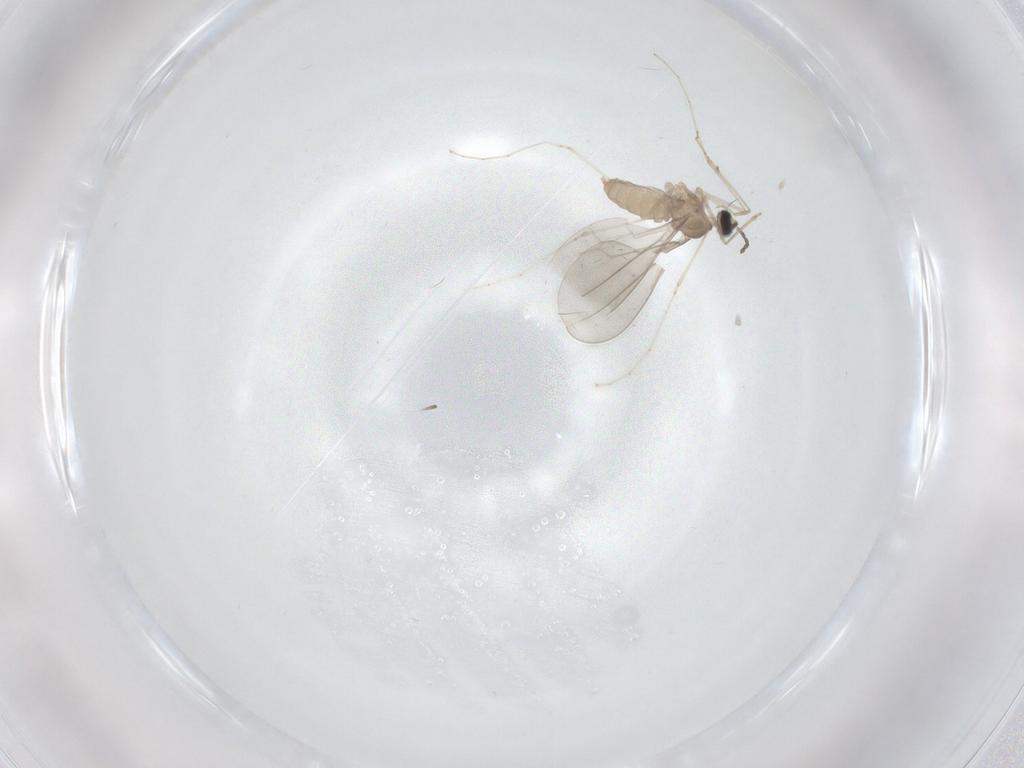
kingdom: Animalia
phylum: Arthropoda
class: Insecta
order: Diptera
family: Cecidomyiidae
